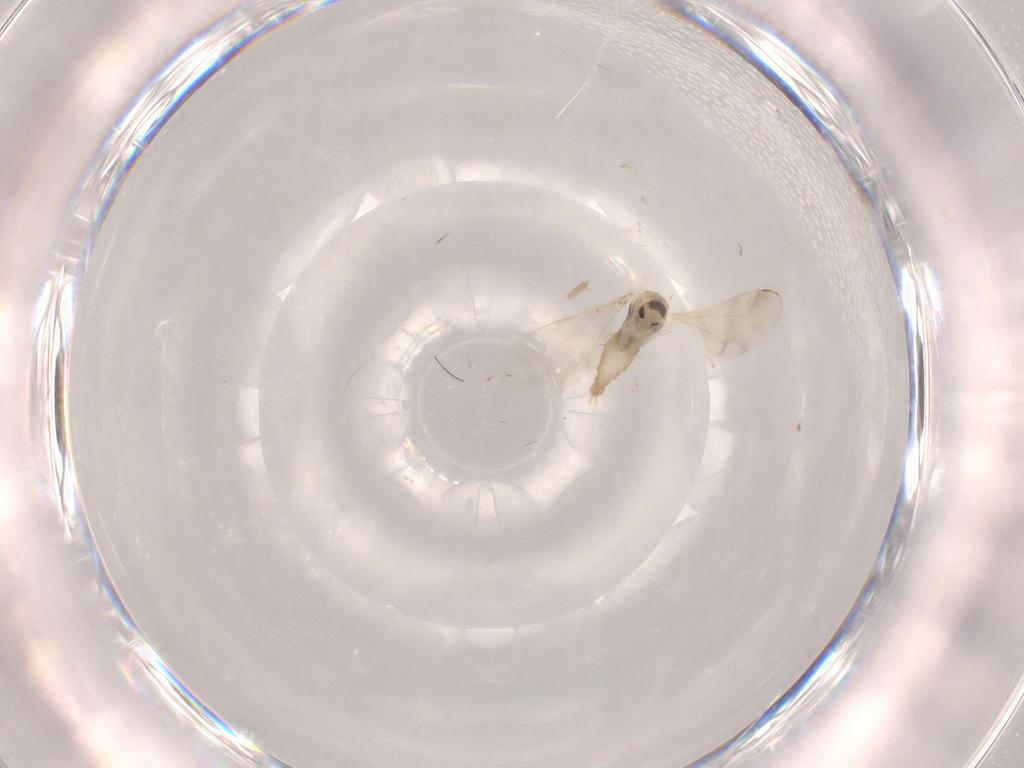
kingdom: Animalia
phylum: Arthropoda
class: Insecta
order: Diptera
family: Cecidomyiidae
